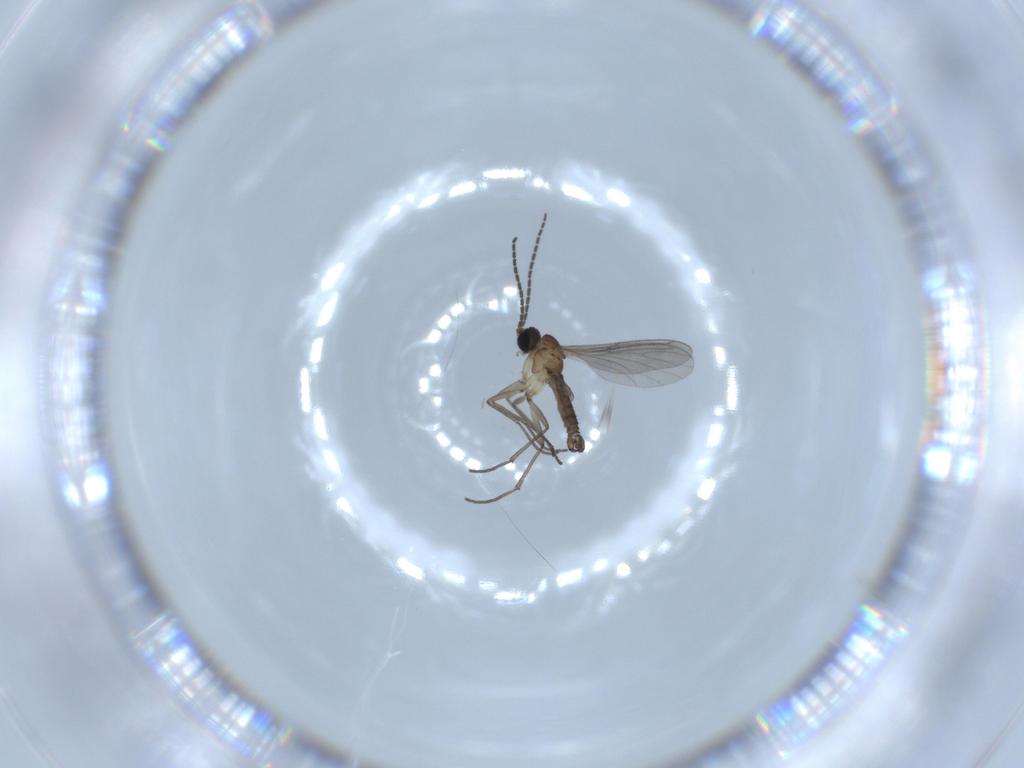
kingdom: Animalia
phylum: Arthropoda
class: Insecta
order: Diptera
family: Sciaridae
